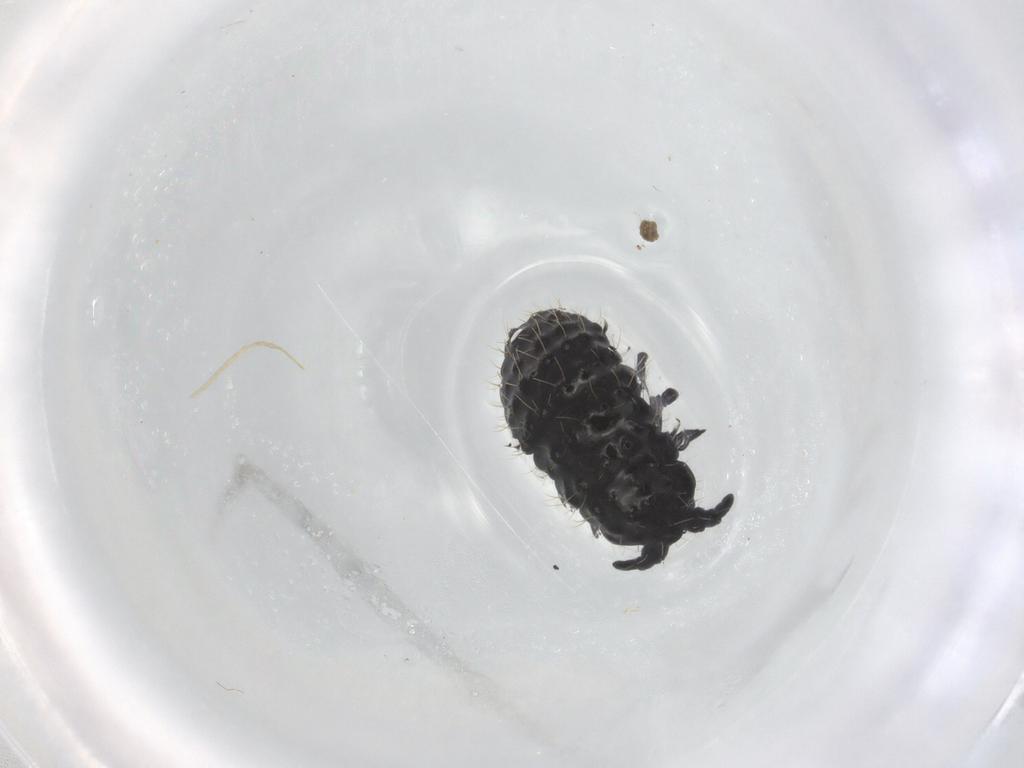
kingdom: Animalia
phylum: Arthropoda
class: Collembola
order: Poduromorpha
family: Neanuridae
